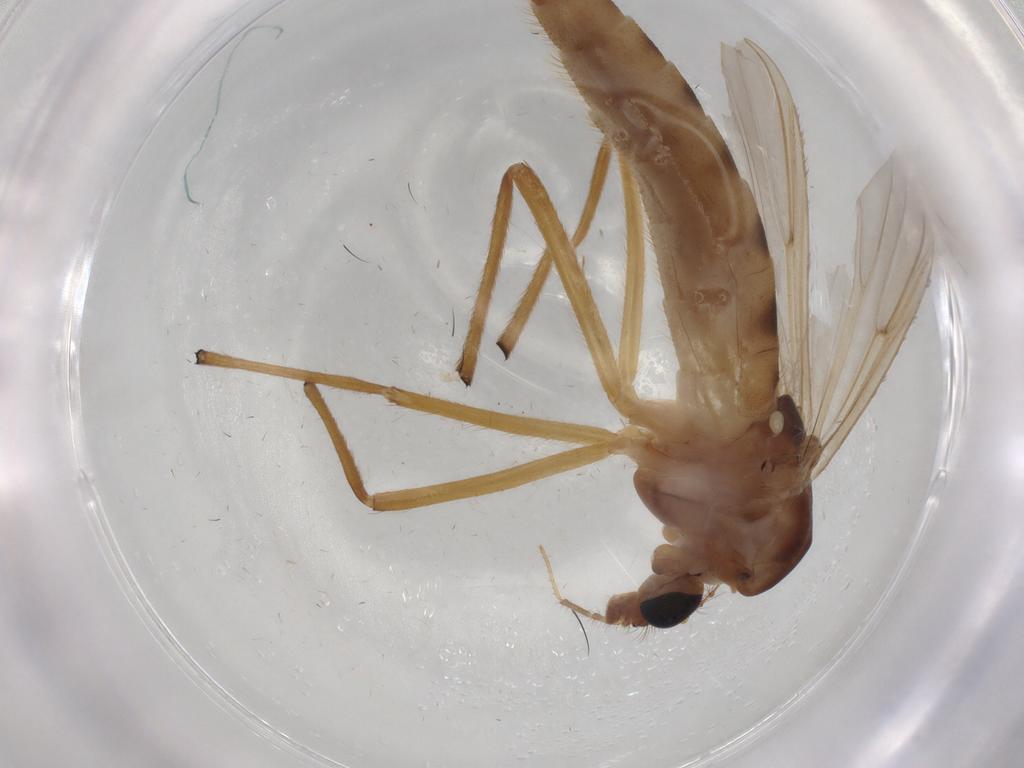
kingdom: Animalia
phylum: Arthropoda
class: Insecta
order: Diptera
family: Chironomidae
